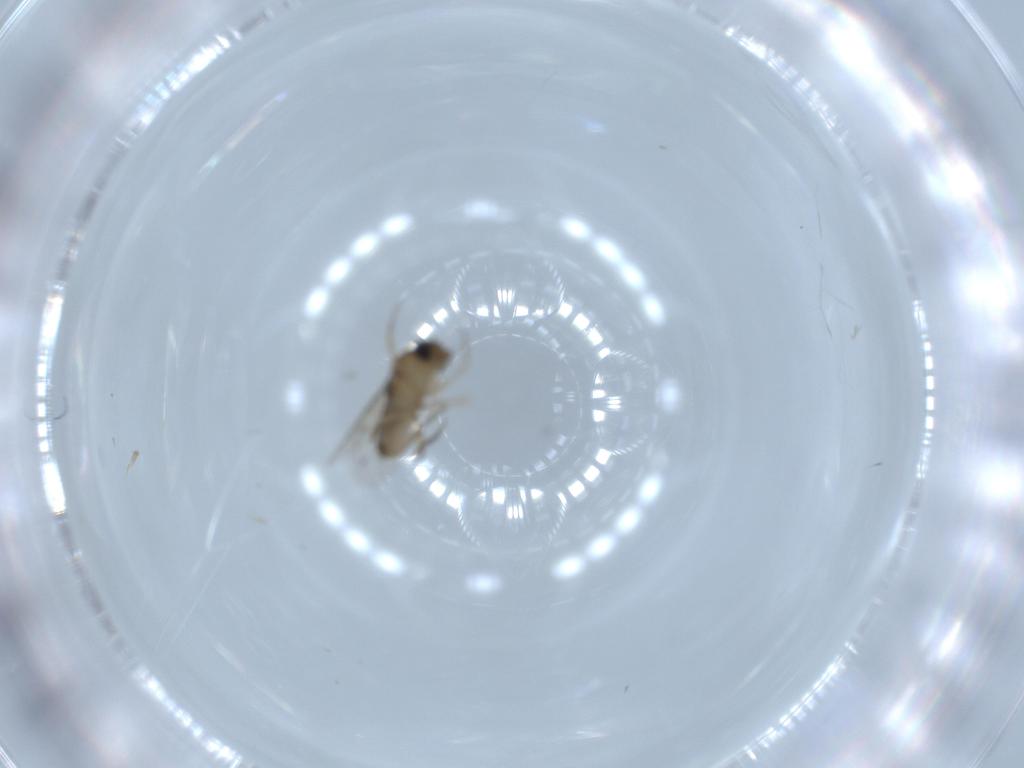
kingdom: Animalia
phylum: Arthropoda
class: Insecta
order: Diptera
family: Phoridae
